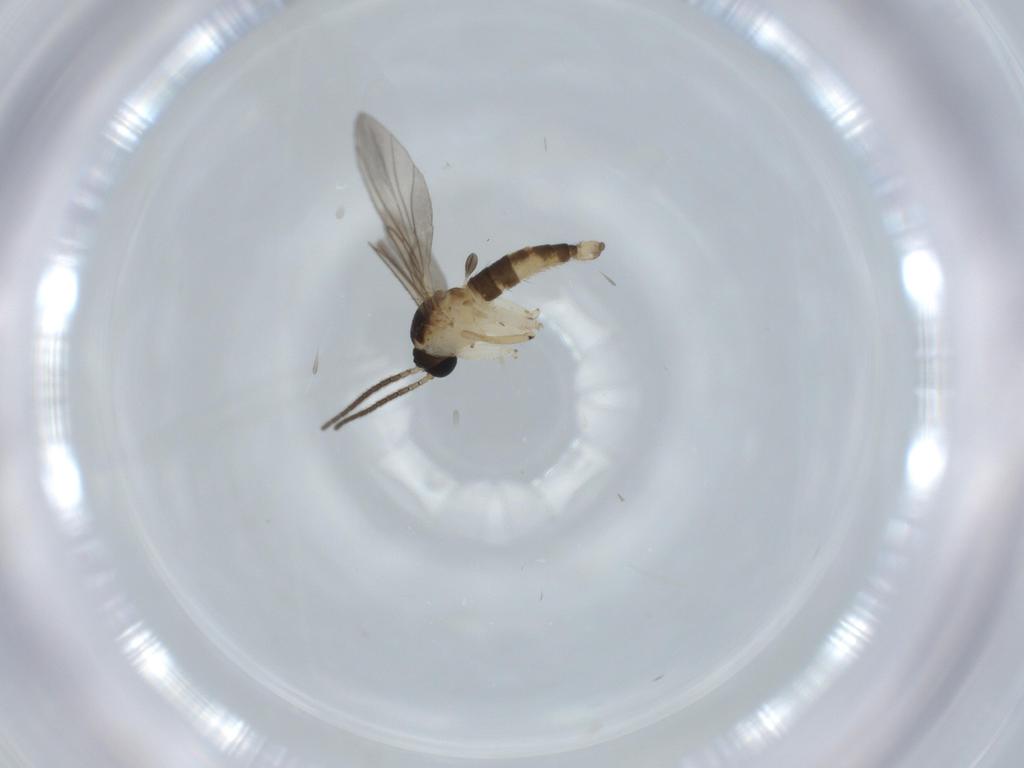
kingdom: Animalia
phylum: Arthropoda
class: Insecta
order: Diptera
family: Sciaridae
